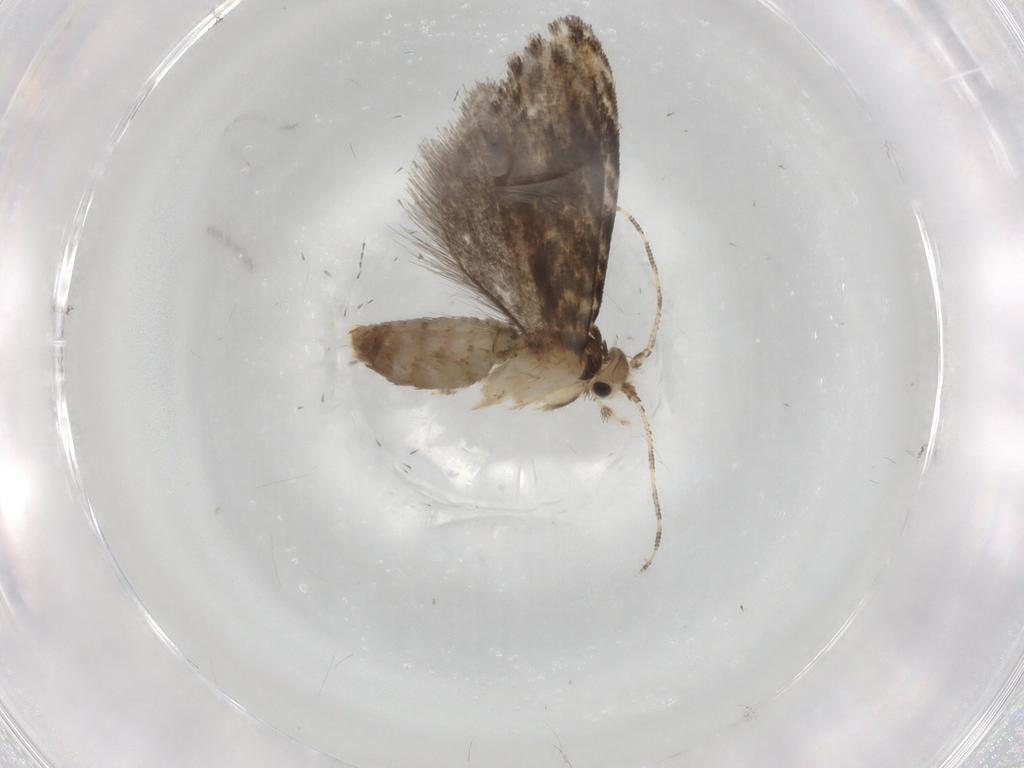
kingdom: Animalia
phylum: Arthropoda
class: Insecta
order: Lepidoptera
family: Tineidae
